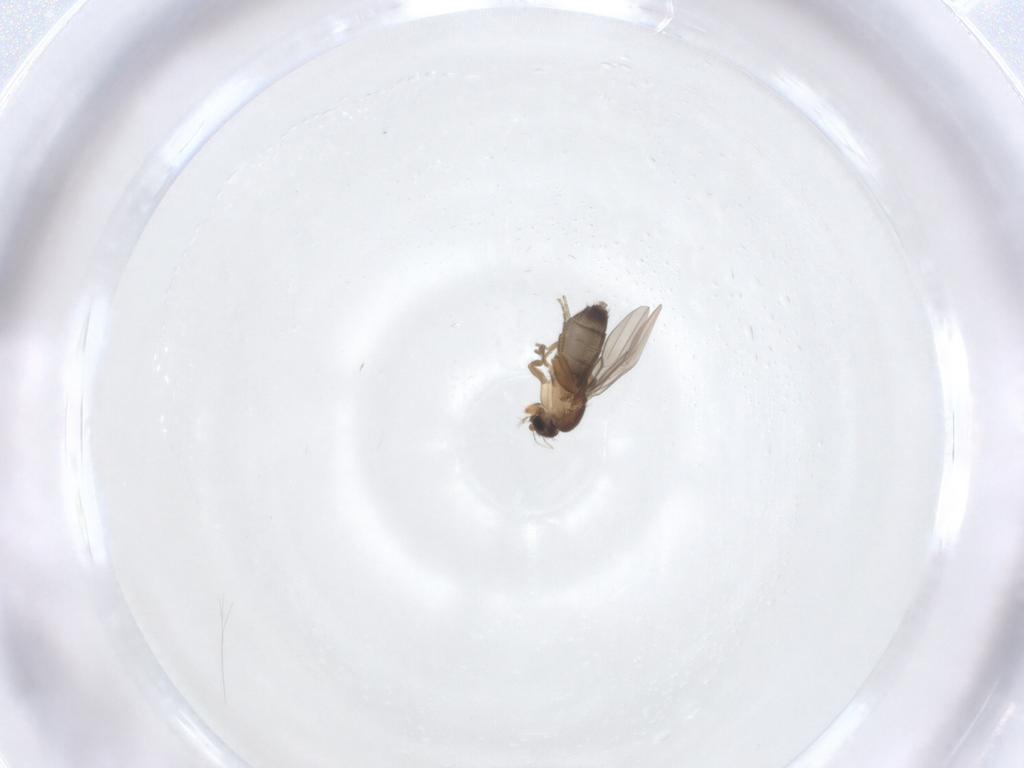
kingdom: Animalia
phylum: Arthropoda
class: Insecta
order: Diptera
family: Phoridae
